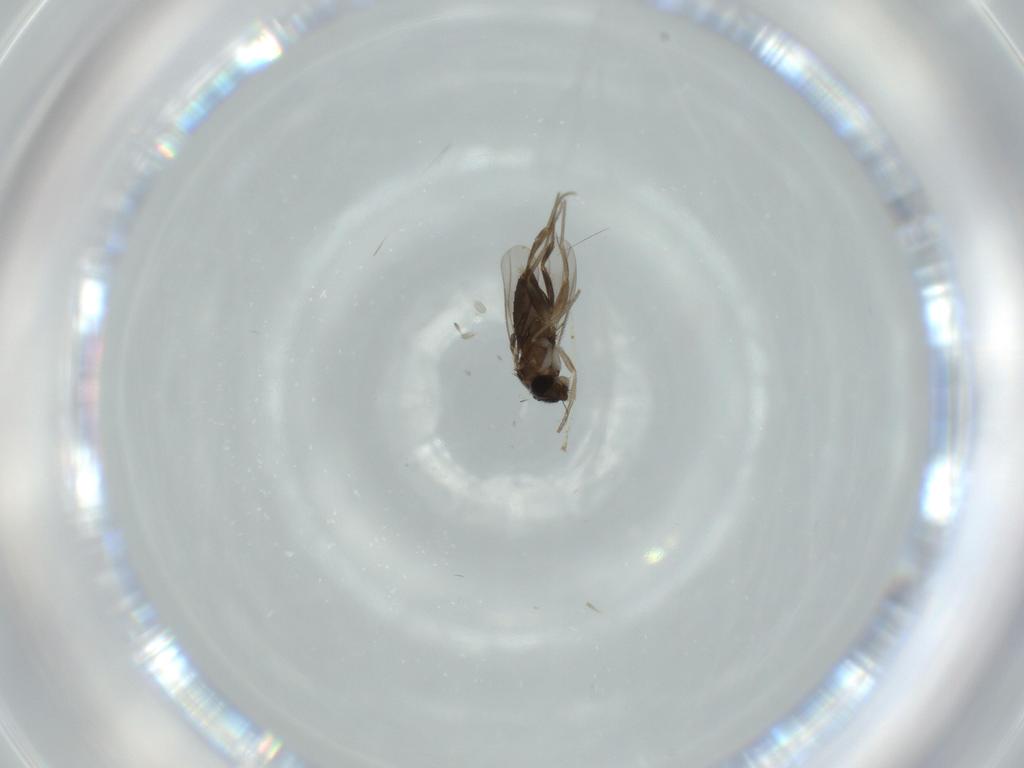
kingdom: Animalia
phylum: Arthropoda
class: Insecta
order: Diptera
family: Phoridae
